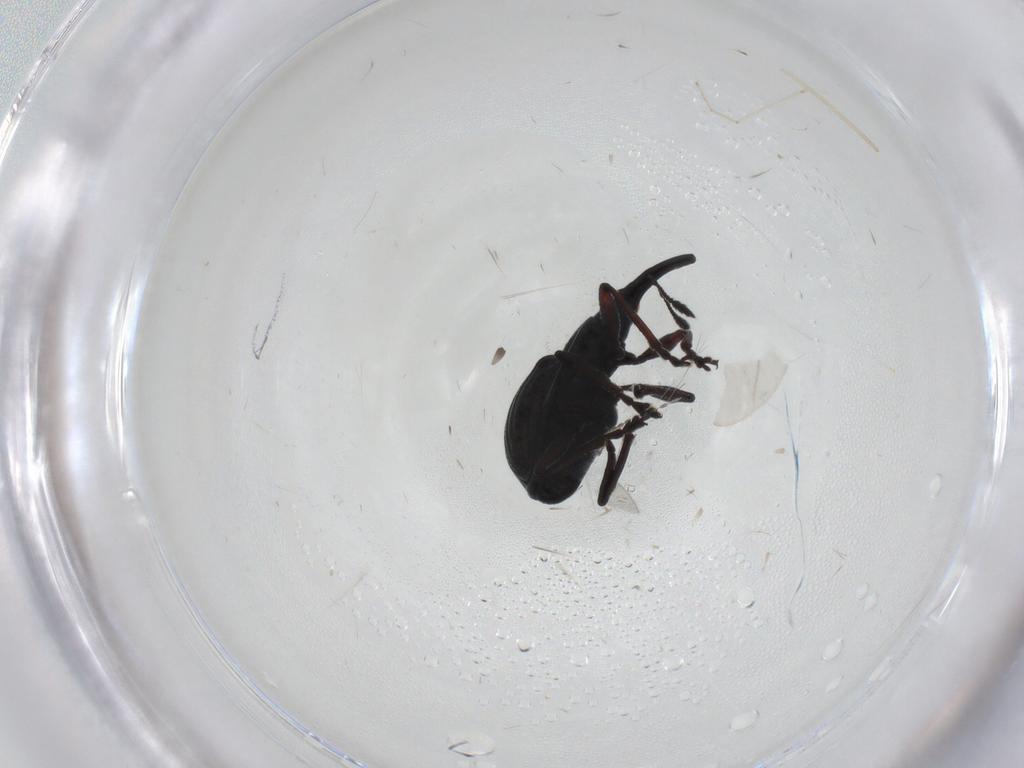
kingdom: Animalia
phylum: Arthropoda
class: Insecta
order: Coleoptera
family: Brentidae
